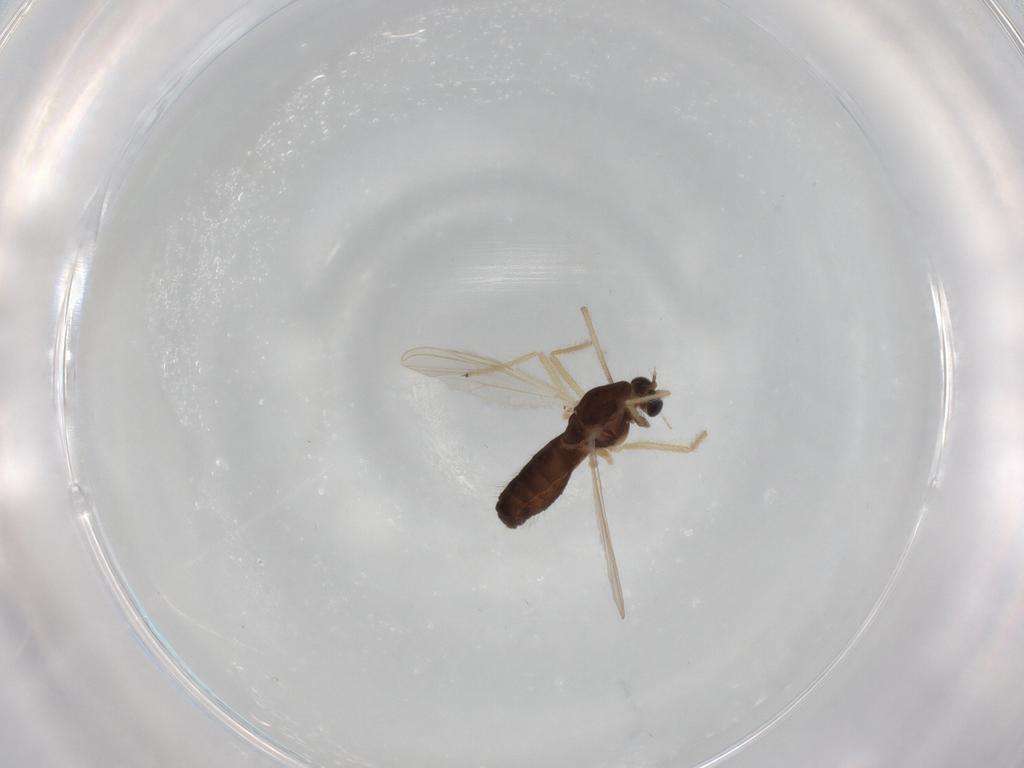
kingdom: Animalia
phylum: Arthropoda
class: Insecta
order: Diptera
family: Chironomidae
